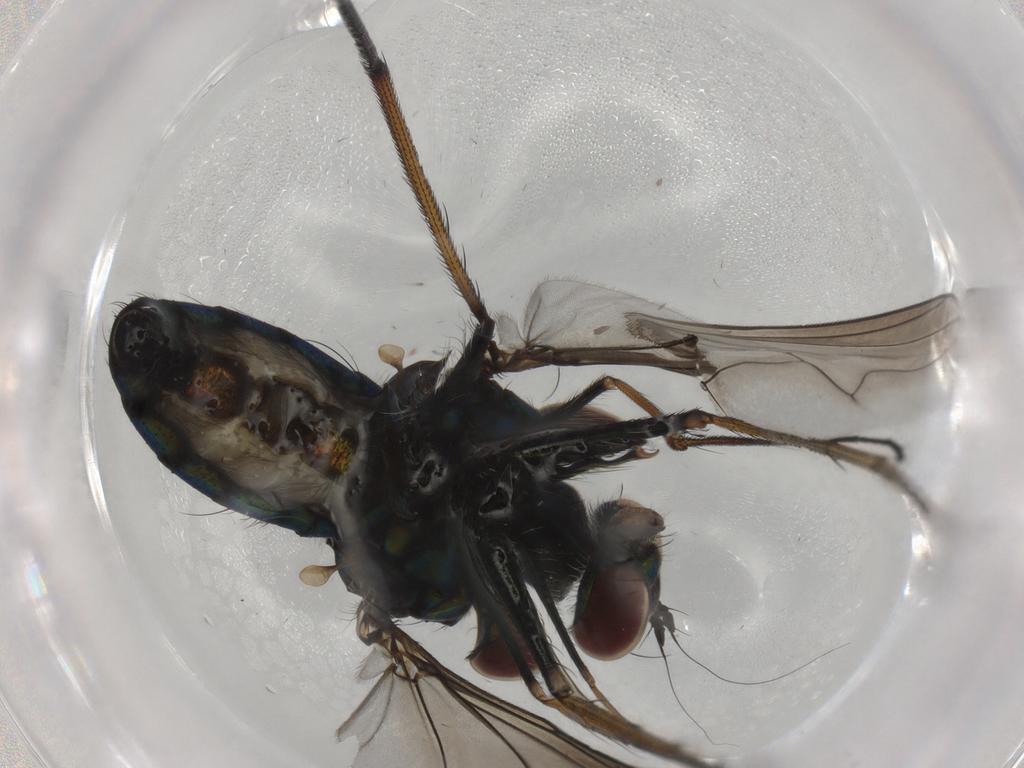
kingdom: Animalia
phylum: Arthropoda
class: Insecta
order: Diptera
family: Dolichopodidae
